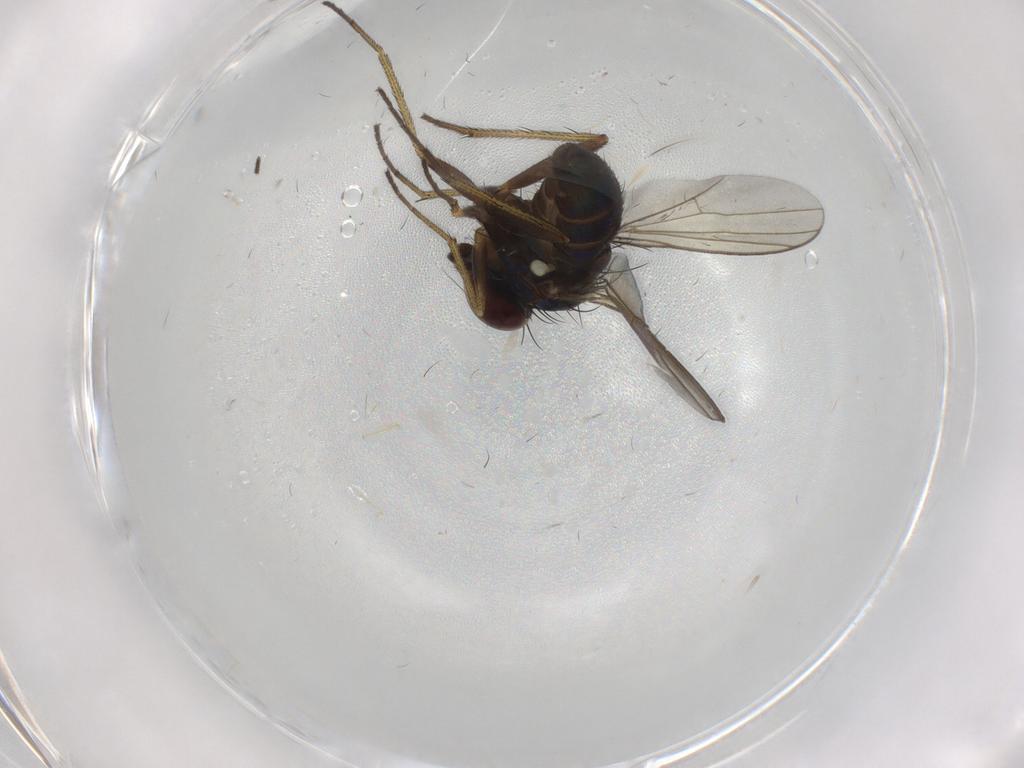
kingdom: Animalia
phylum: Arthropoda
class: Insecta
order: Diptera
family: Dolichopodidae
